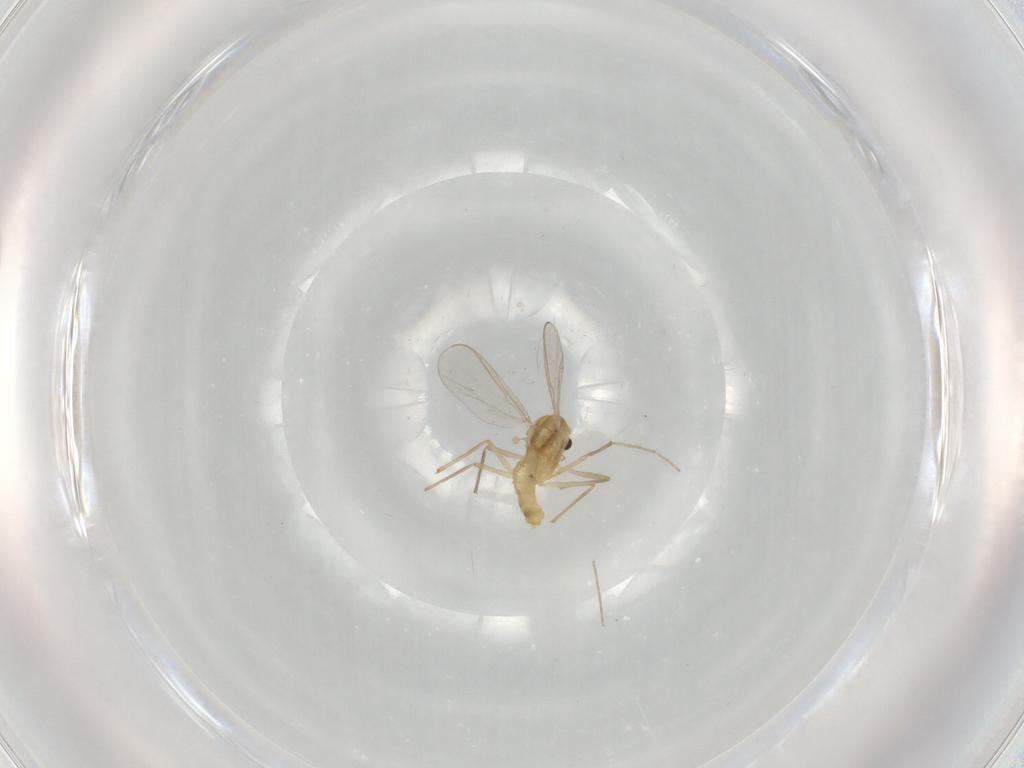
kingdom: Animalia
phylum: Arthropoda
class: Insecta
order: Diptera
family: Chironomidae
